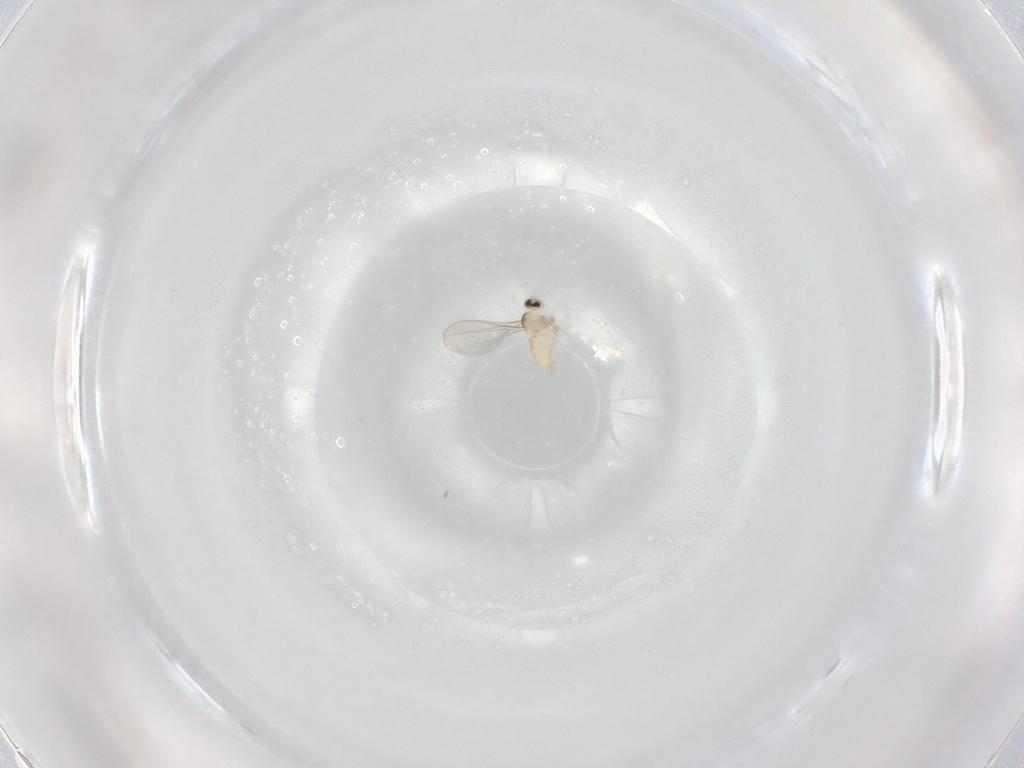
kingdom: Animalia
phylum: Arthropoda
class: Insecta
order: Diptera
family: Cecidomyiidae
